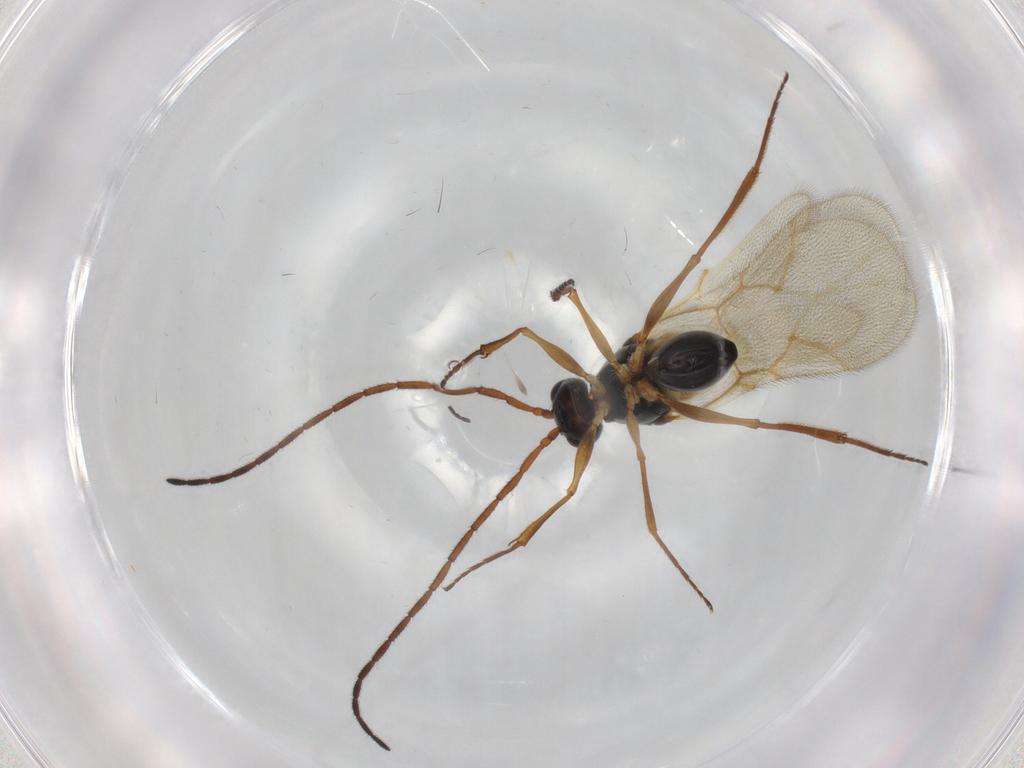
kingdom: Animalia
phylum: Arthropoda
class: Insecta
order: Hymenoptera
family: Figitidae
